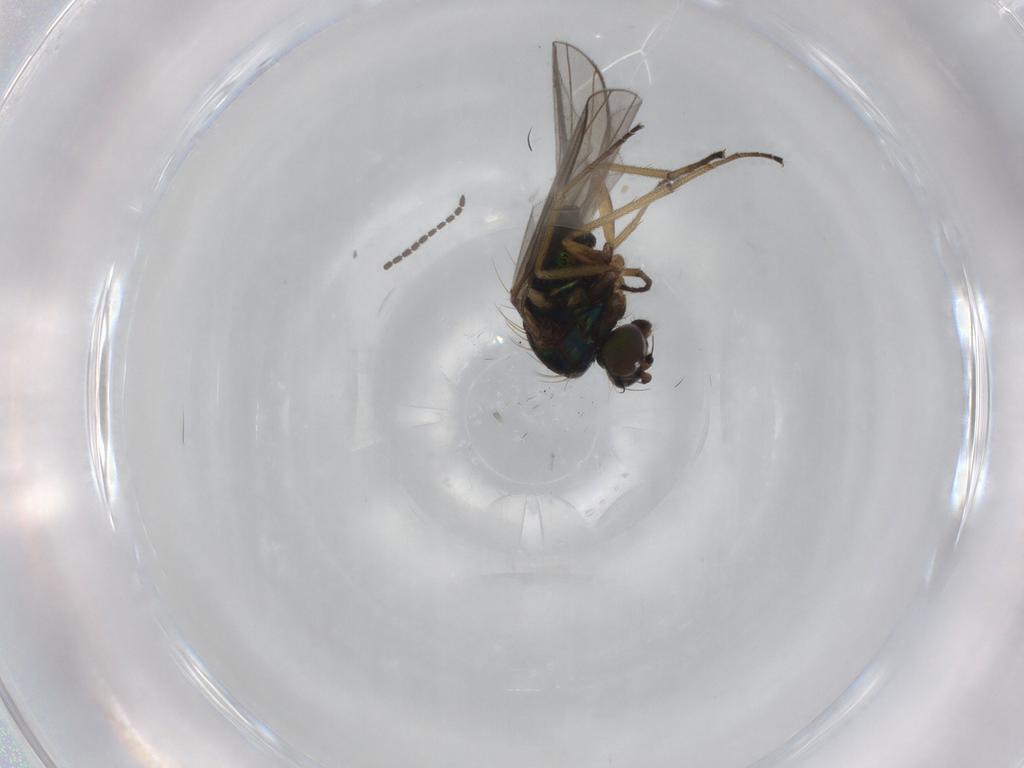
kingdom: Animalia
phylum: Arthropoda
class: Insecta
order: Diptera
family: Dolichopodidae
